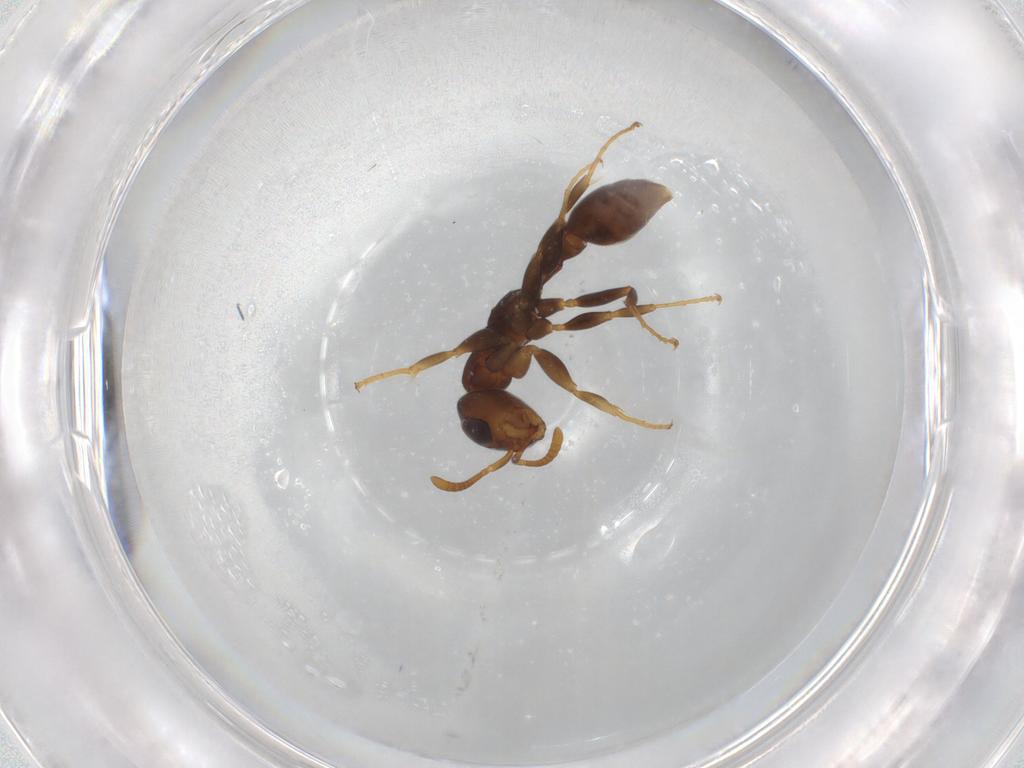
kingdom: Animalia
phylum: Arthropoda
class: Insecta
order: Hymenoptera
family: Formicidae
